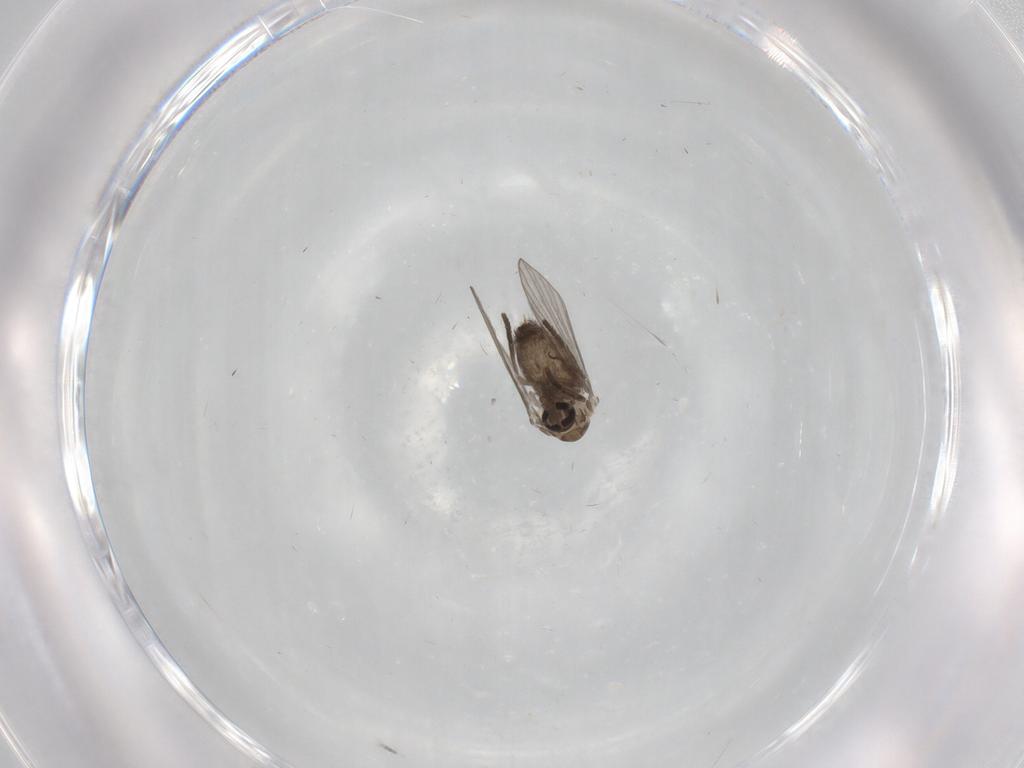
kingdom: Animalia
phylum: Arthropoda
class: Insecta
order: Diptera
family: Psychodidae
